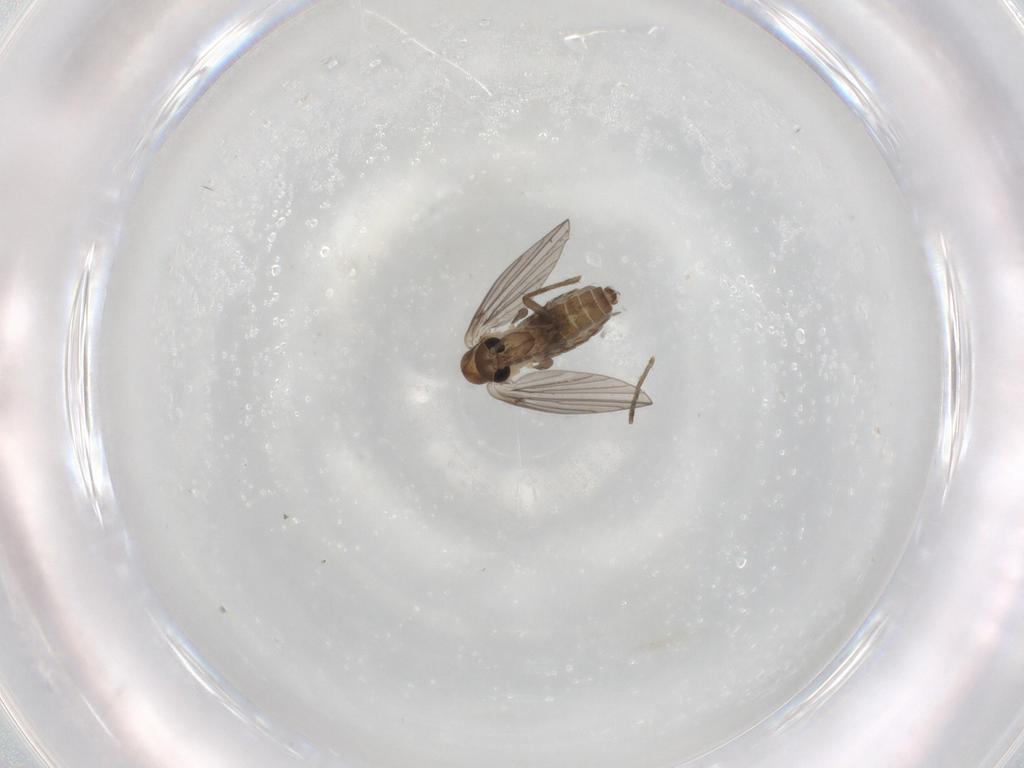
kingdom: Animalia
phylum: Arthropoda
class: Insecta
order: Diptera
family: Psychodidae
